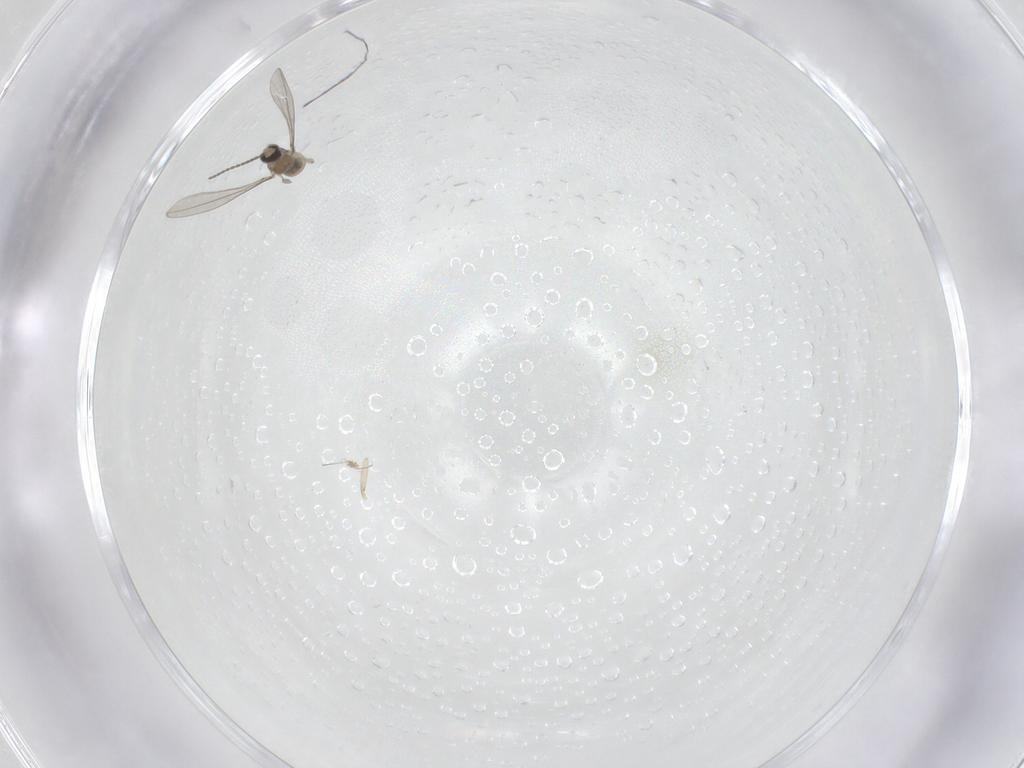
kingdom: Animalia
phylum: Arthropoda
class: Insecta
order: Diptera
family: Cecidomyiidae
